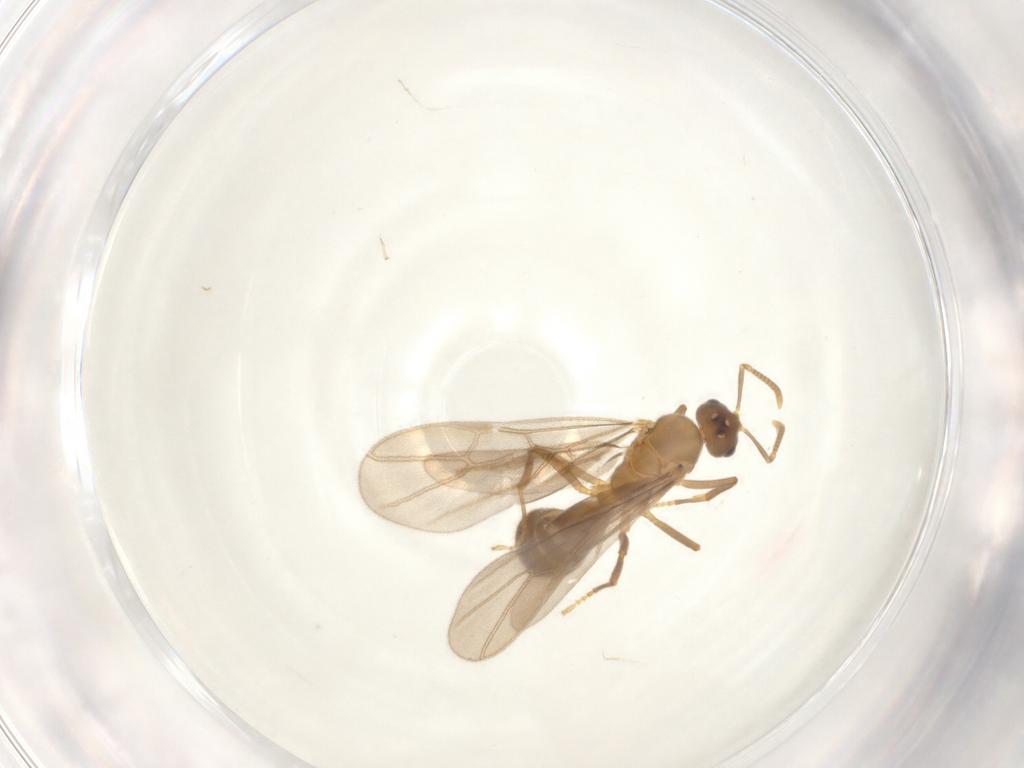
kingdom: Animalia
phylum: Arthropoda
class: Insecta
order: Hymenoptera
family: Formicidae
